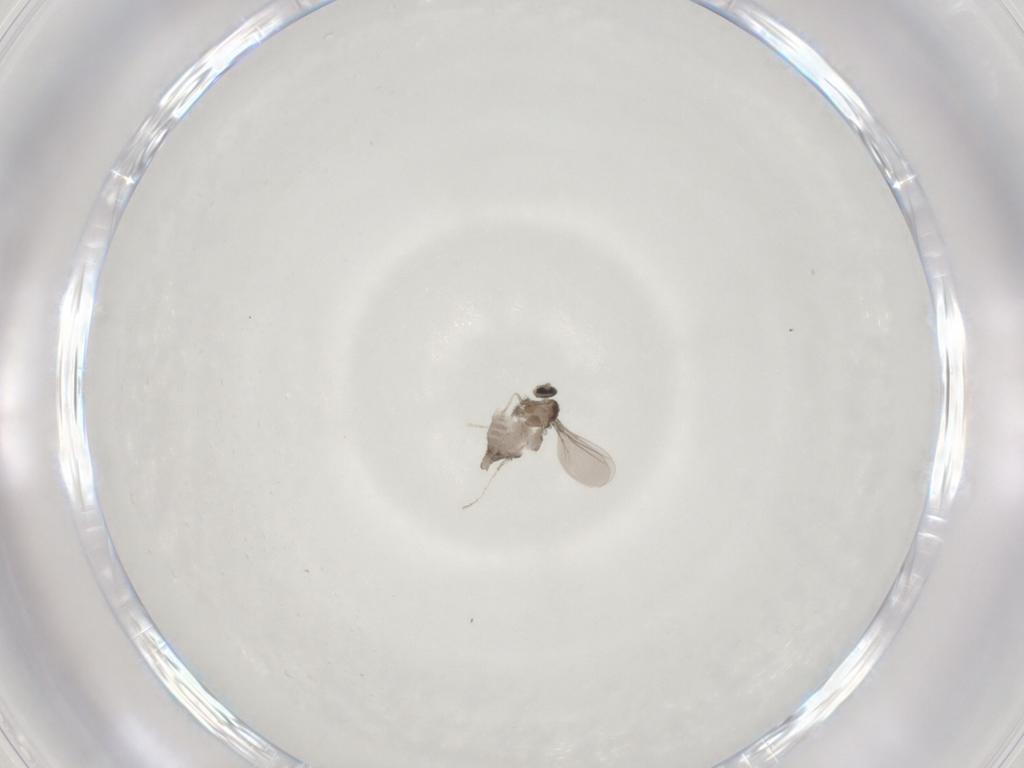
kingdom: Animalia
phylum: Arthropoda
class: Insecta
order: Diptera
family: Cecidomyiidae
